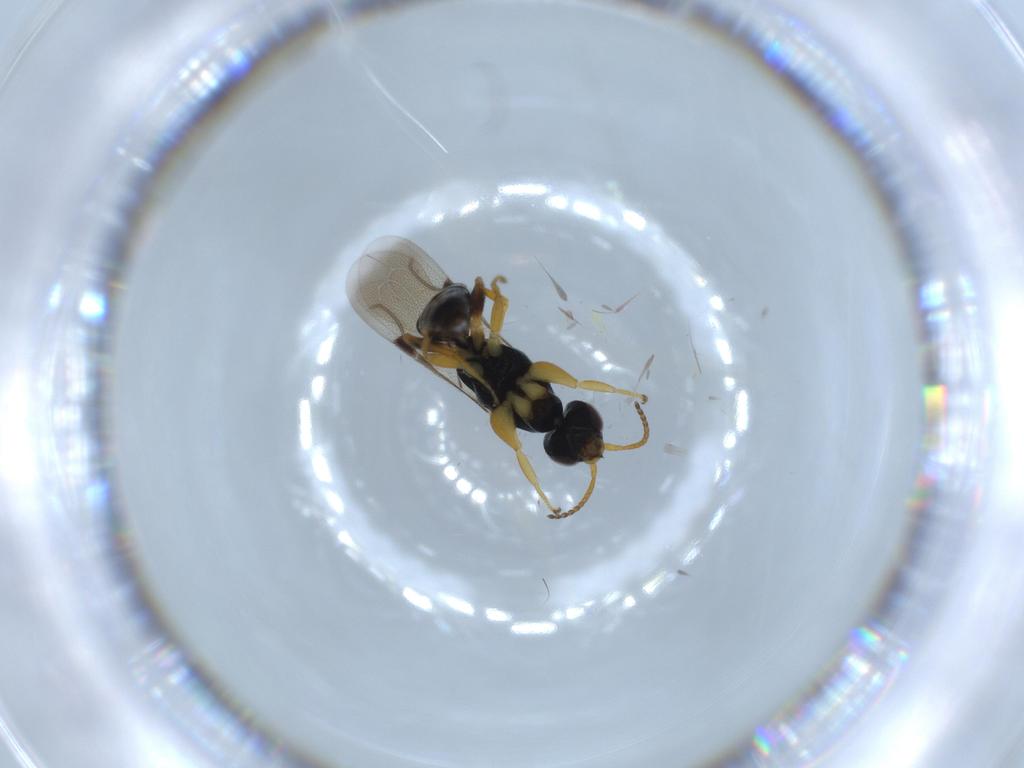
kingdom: Animalia
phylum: Arthropoda
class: Insecta
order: Hymenoptera
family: Bethylidae
